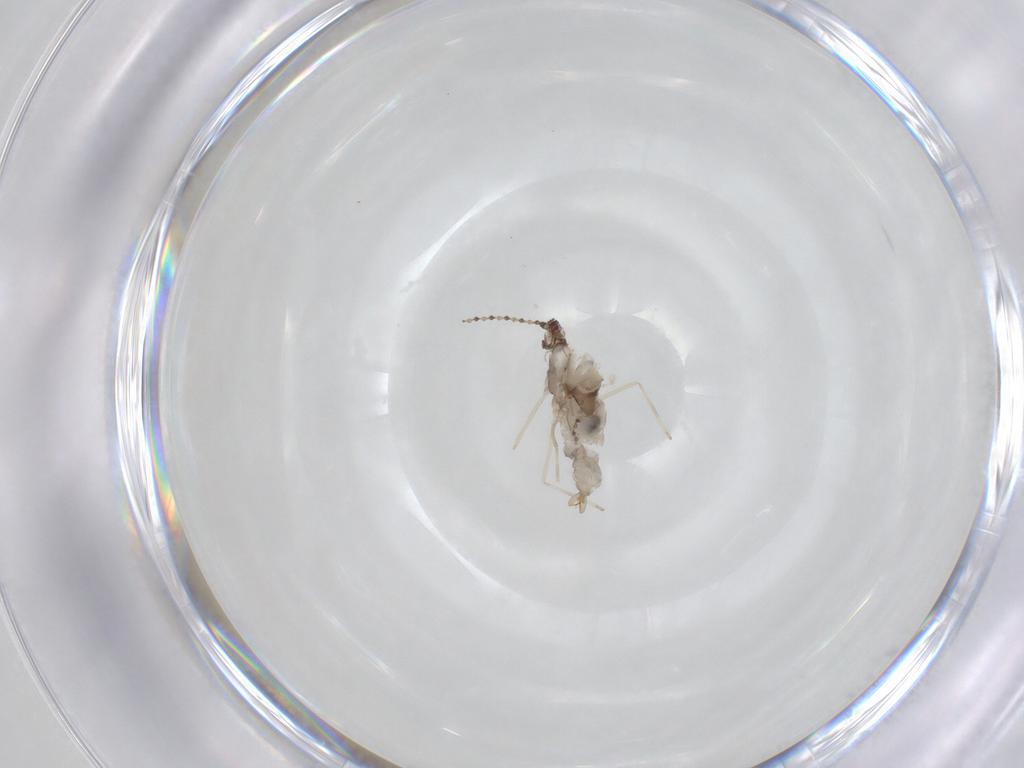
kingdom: Animalia
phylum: Arthropoda
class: Insecta
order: Diptera
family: Cecidomyiidae
